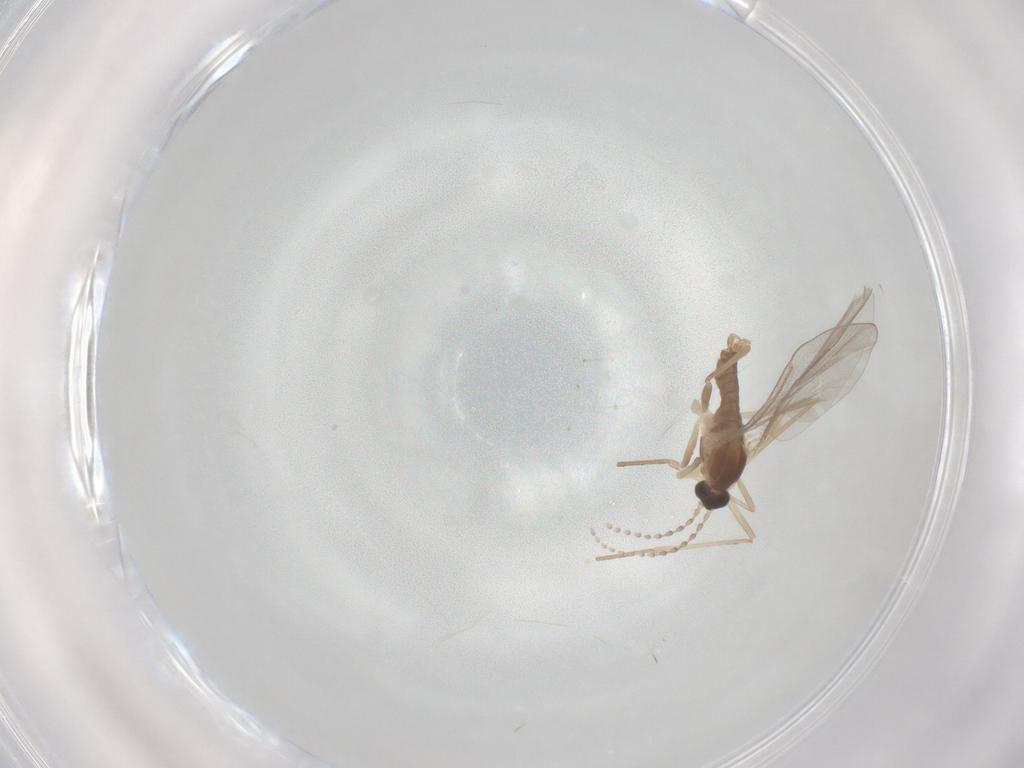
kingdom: Animalia
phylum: Arthropoda
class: Insecta
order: Diptera
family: Cecidomyiidae
